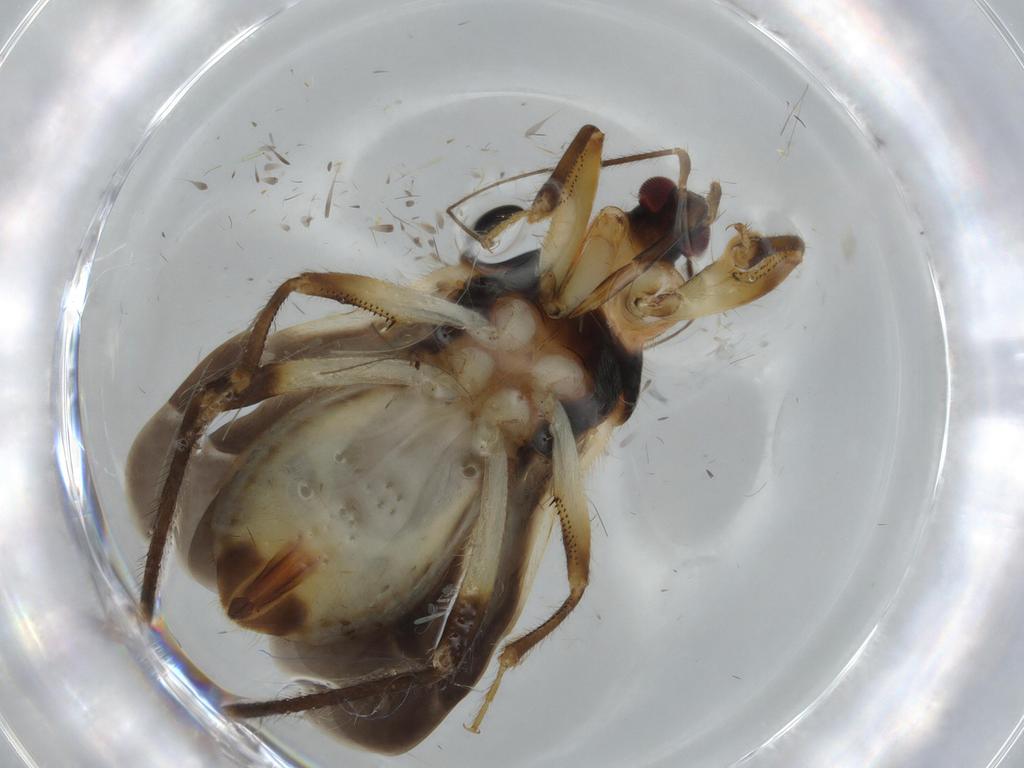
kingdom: Animalia
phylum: Arthropoda
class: Insecta
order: Hemiptera
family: Nabidae
